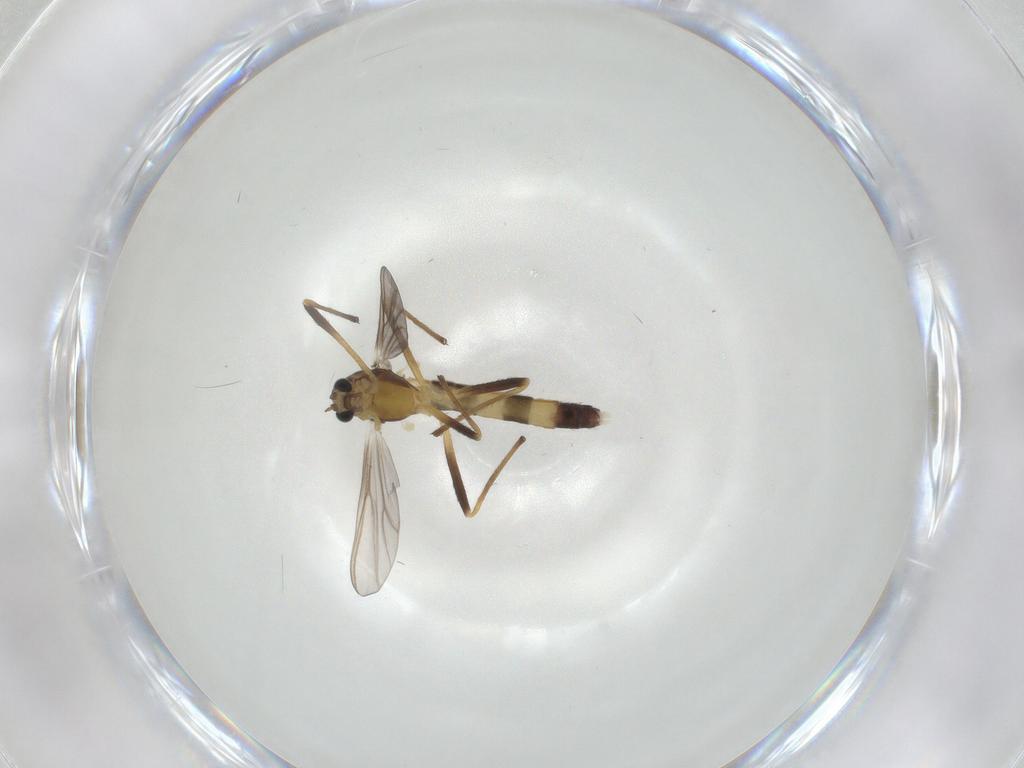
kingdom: Animalia
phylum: Arthropoda
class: Insecta
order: Diptera
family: Chironomidae
